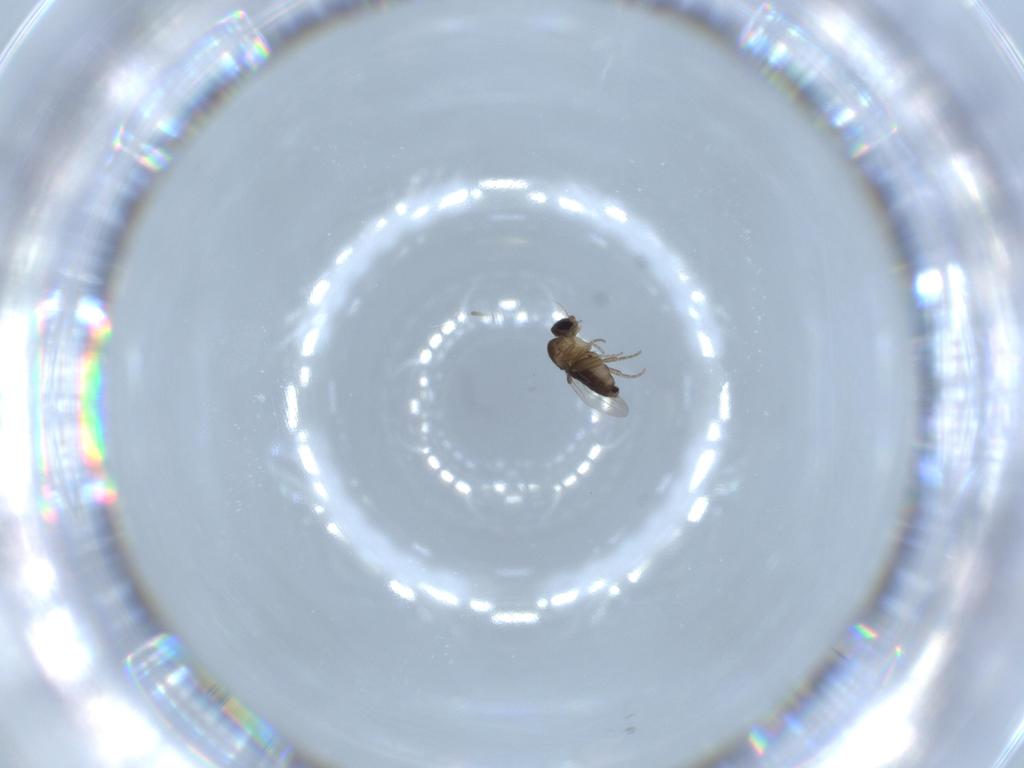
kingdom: Animalia
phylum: Arthropoda
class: Insecta
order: Diptera
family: Phoridae
